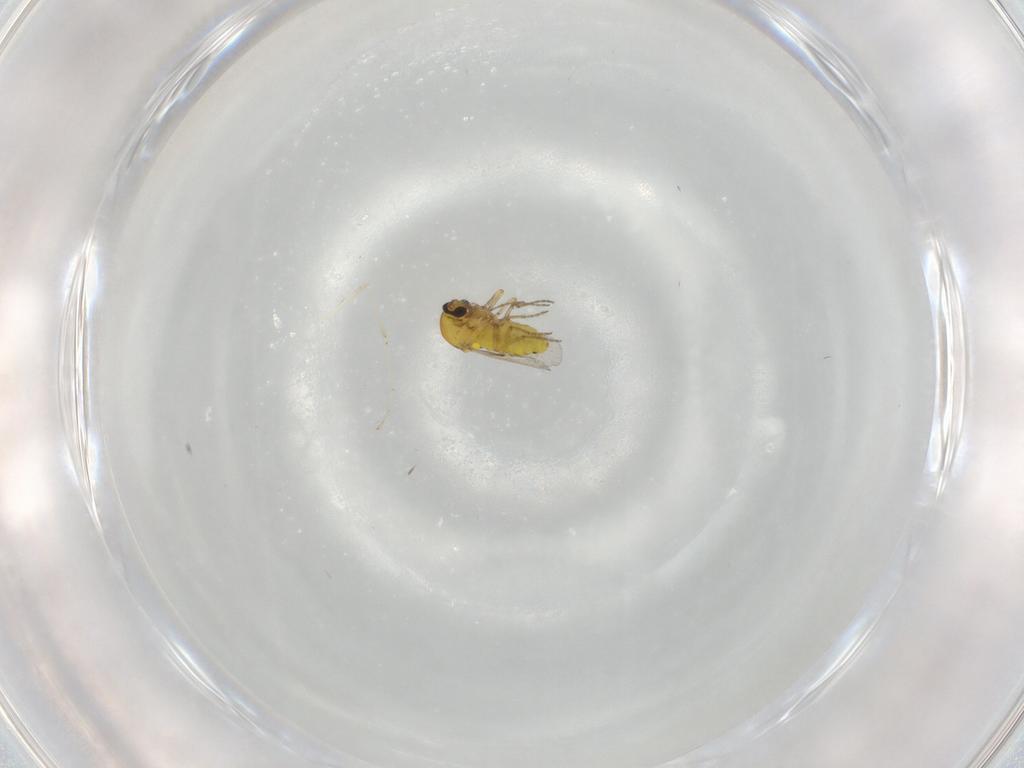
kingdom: Animalia
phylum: Arthropoda
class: Insecta
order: Diptera
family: Ceratopogonidae
